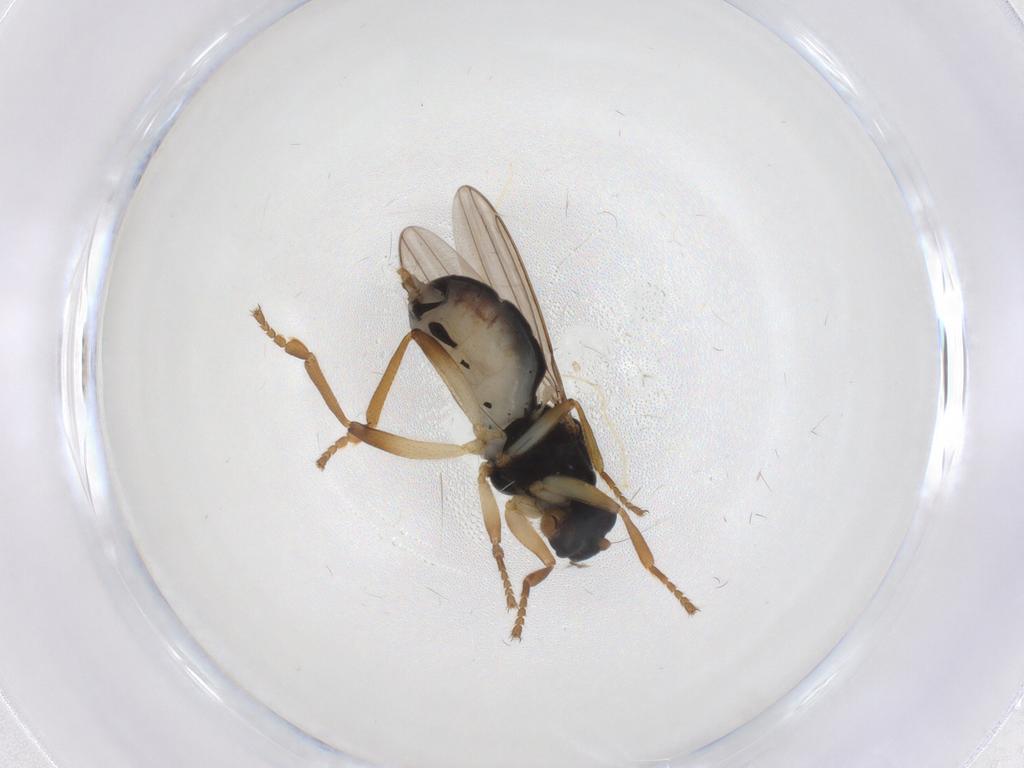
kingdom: Animalia
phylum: Arthropoda
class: Insecta
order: Diptera
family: Sphaeroceridae
